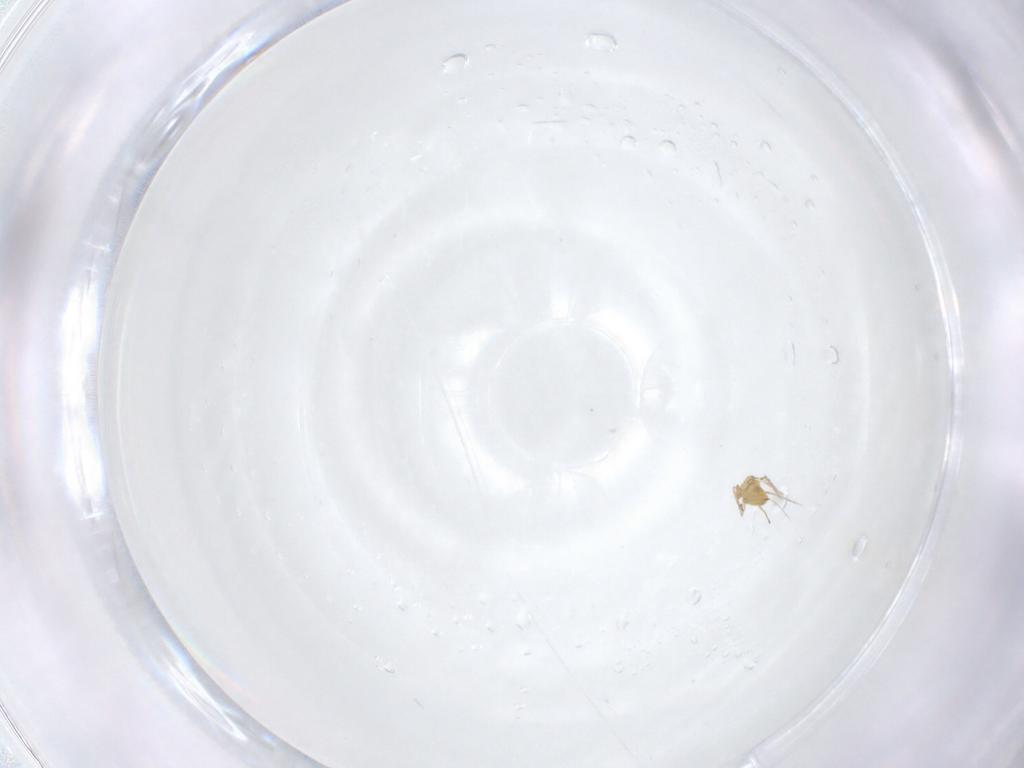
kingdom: Animalia
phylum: Arthropoda
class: Insecta
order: Hymenoptera
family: Trichogrammatidae
